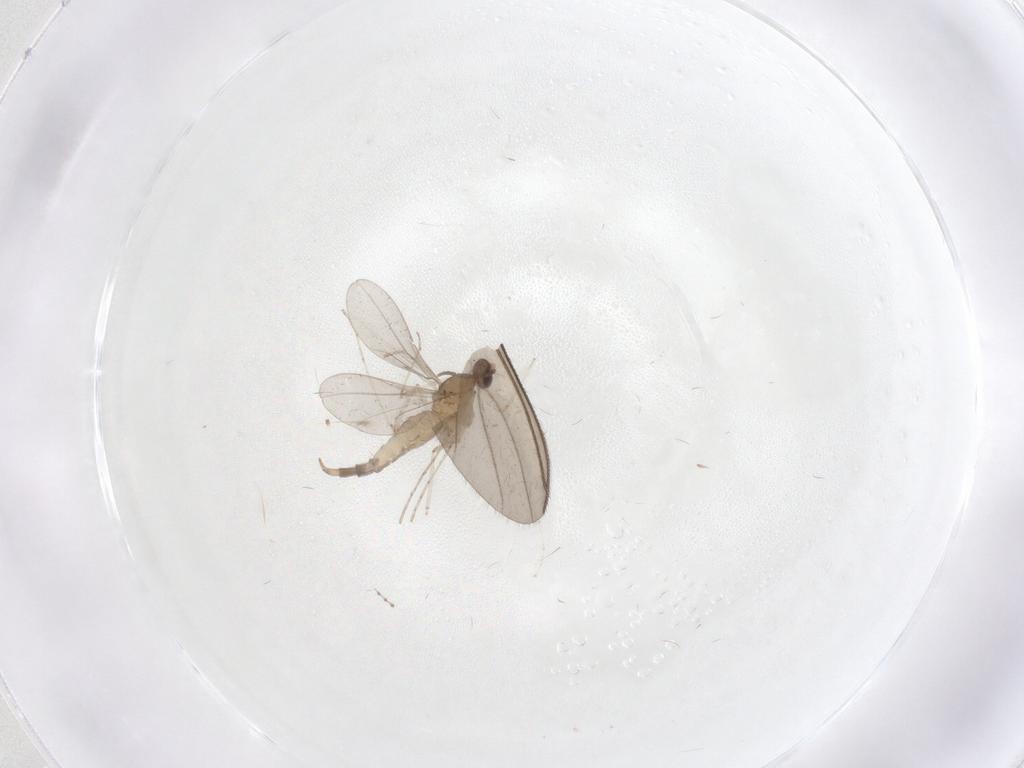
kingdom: Animalia
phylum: Arthropoda
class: Insecta
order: Diptera
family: Cecidomyiidae
